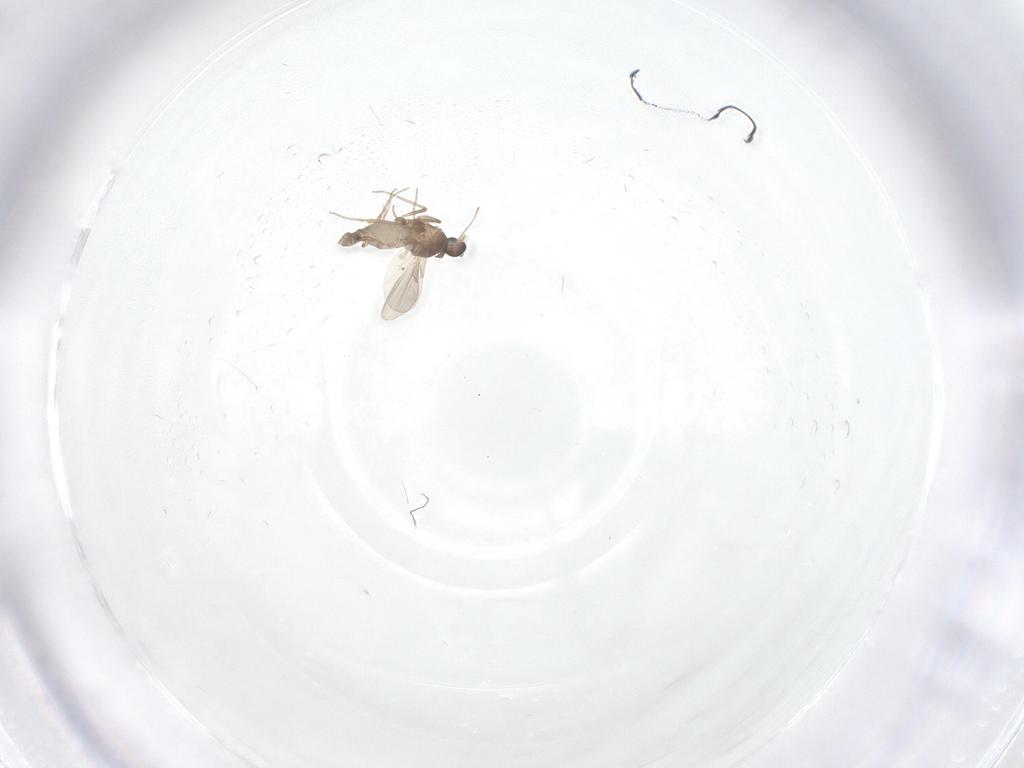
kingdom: Animalia
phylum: Arthropoda
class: Insecta
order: Diptera
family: Ceratopogonidae
